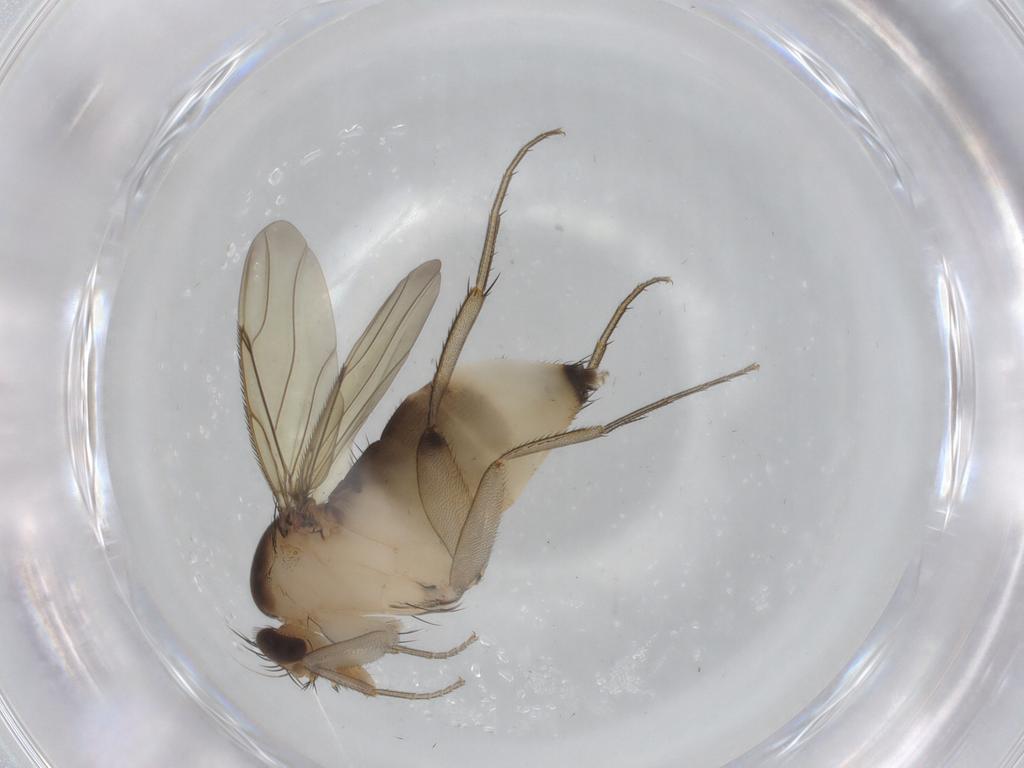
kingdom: Animalia
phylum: Arthropoda
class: Insecta
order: Diptera
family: Phoridae
